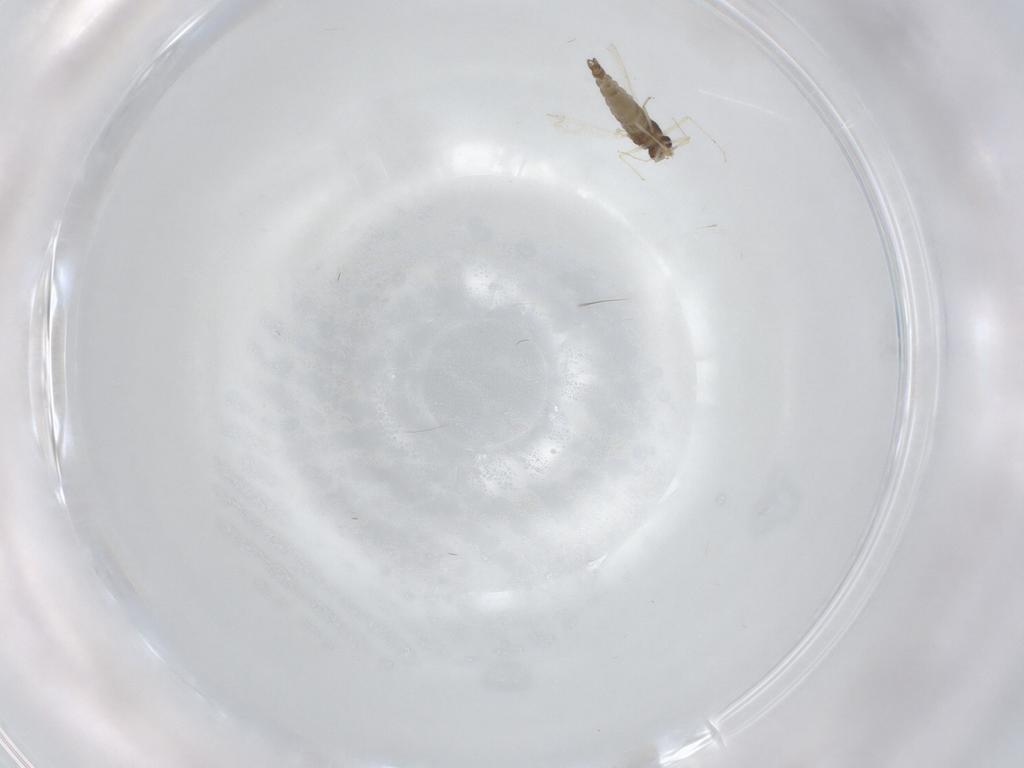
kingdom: Animalia
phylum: Arthropoda
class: Insecta
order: Diptera
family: Chironomidae
